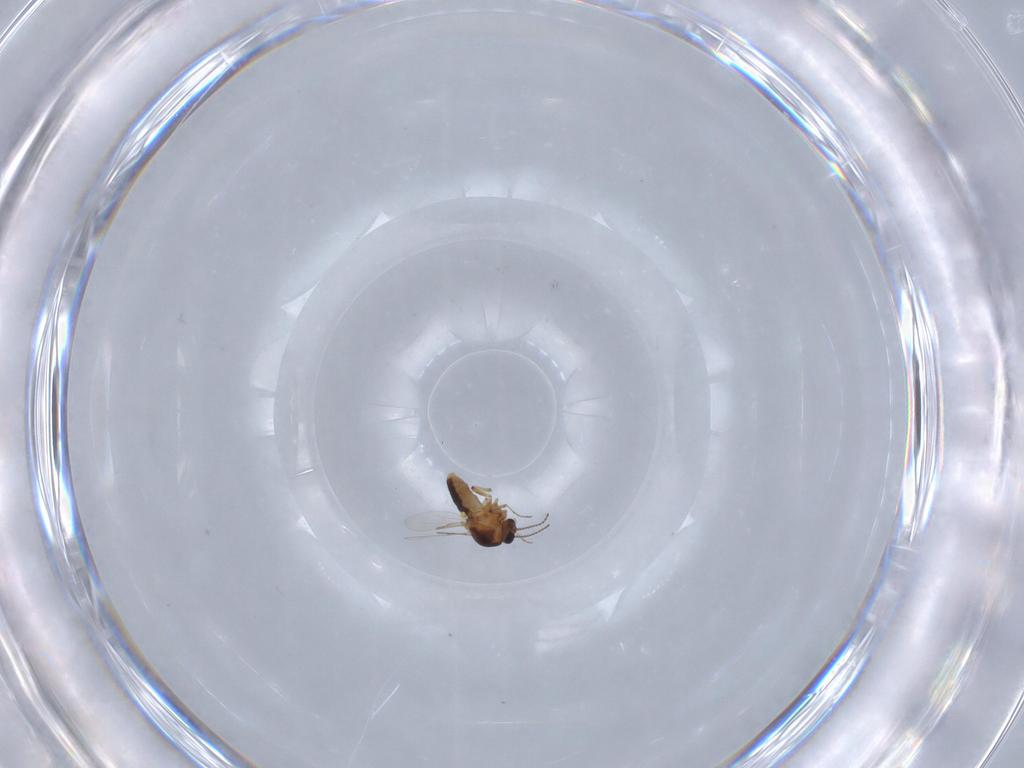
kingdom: Animalia
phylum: Arthropoda
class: Insecta
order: Diptera
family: Ceratopogonidae
